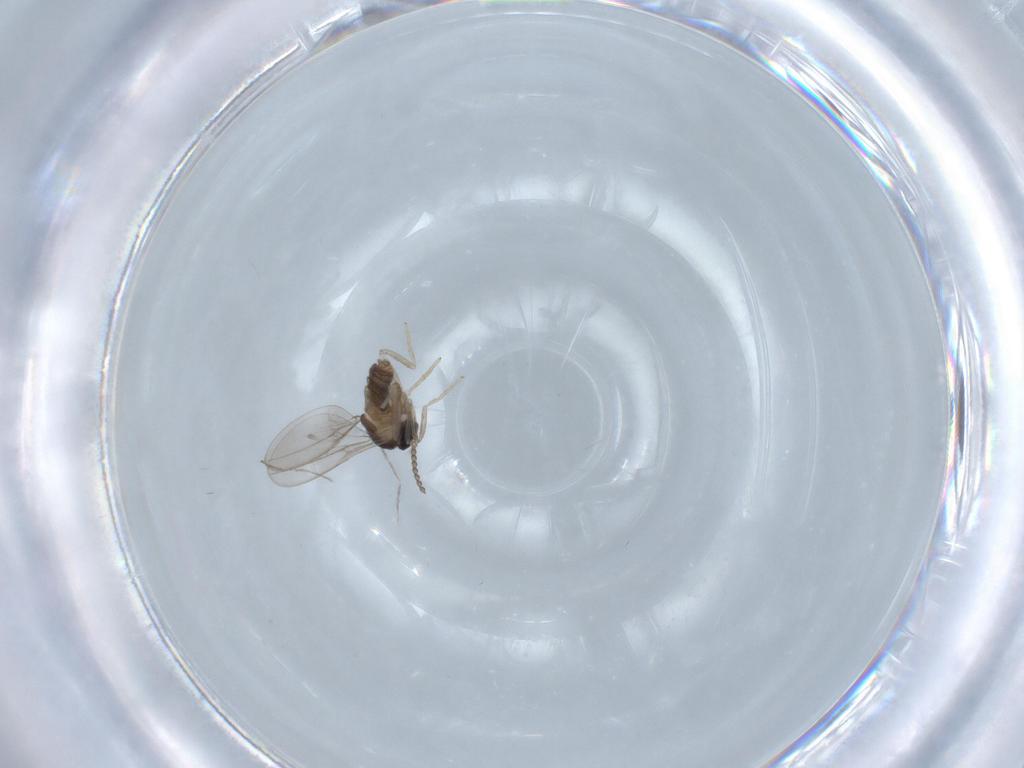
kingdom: Animalia
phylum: Arthropoda
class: Insecta
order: Diptera
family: Cecidomyiidae
